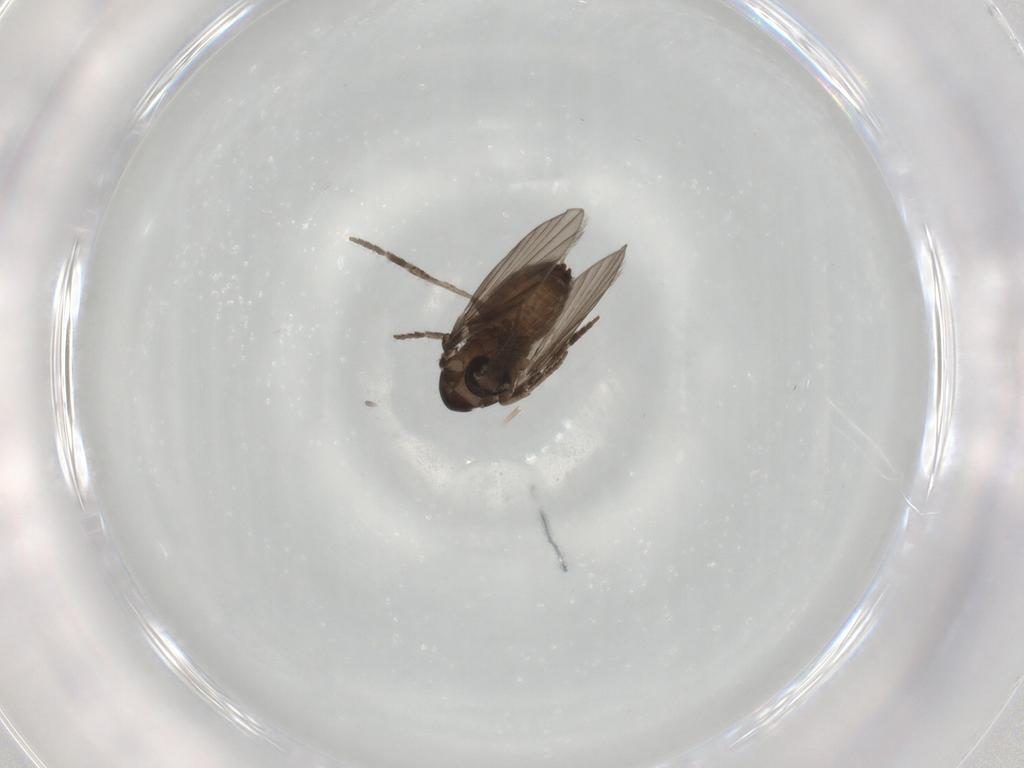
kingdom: Animalia
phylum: Arthropoda
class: Insecta
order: Diptera
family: Psychodidae
